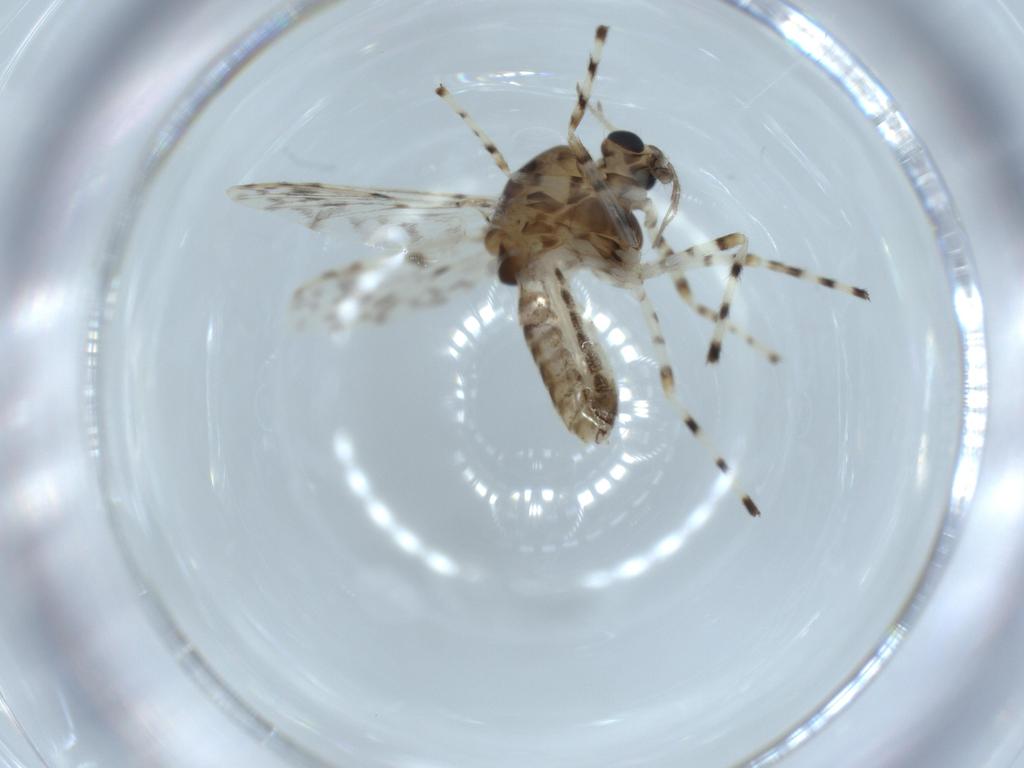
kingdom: Animalia
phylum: Arthropoda
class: Insecta
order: Diptera
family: Chironomidae
